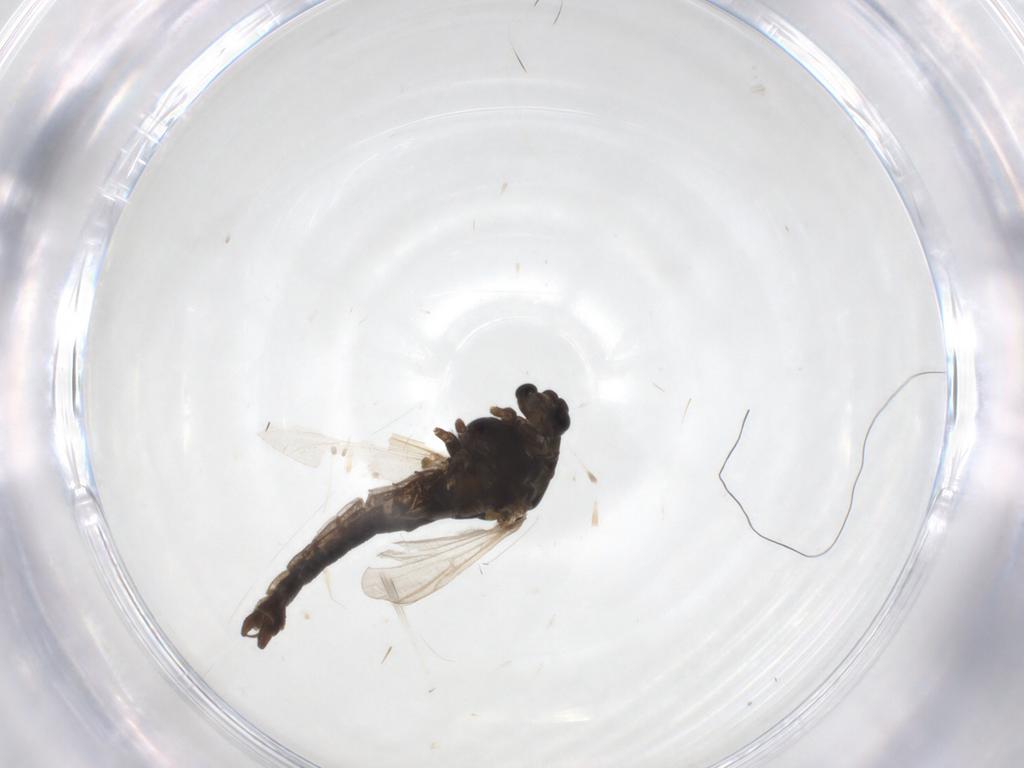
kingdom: Animalia
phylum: Arthropoda
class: Insecta
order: Diptera
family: Chironomidae
